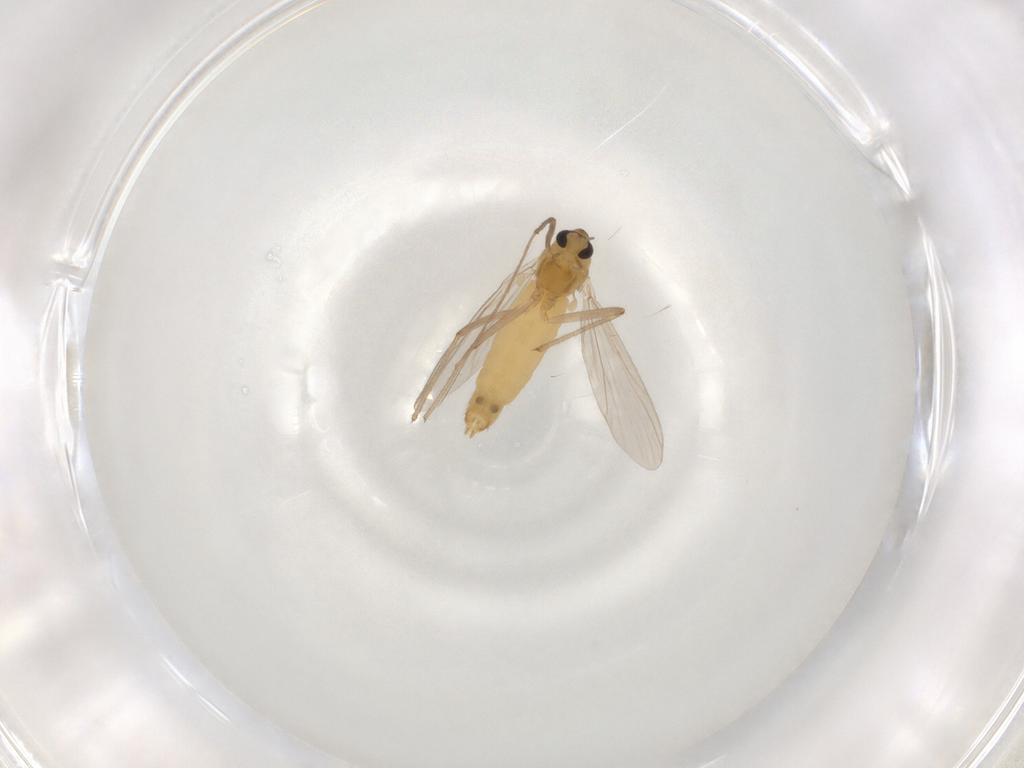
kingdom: Animalia
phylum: Arthropoda
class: Insecta
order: Diptera
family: Chironomidae
